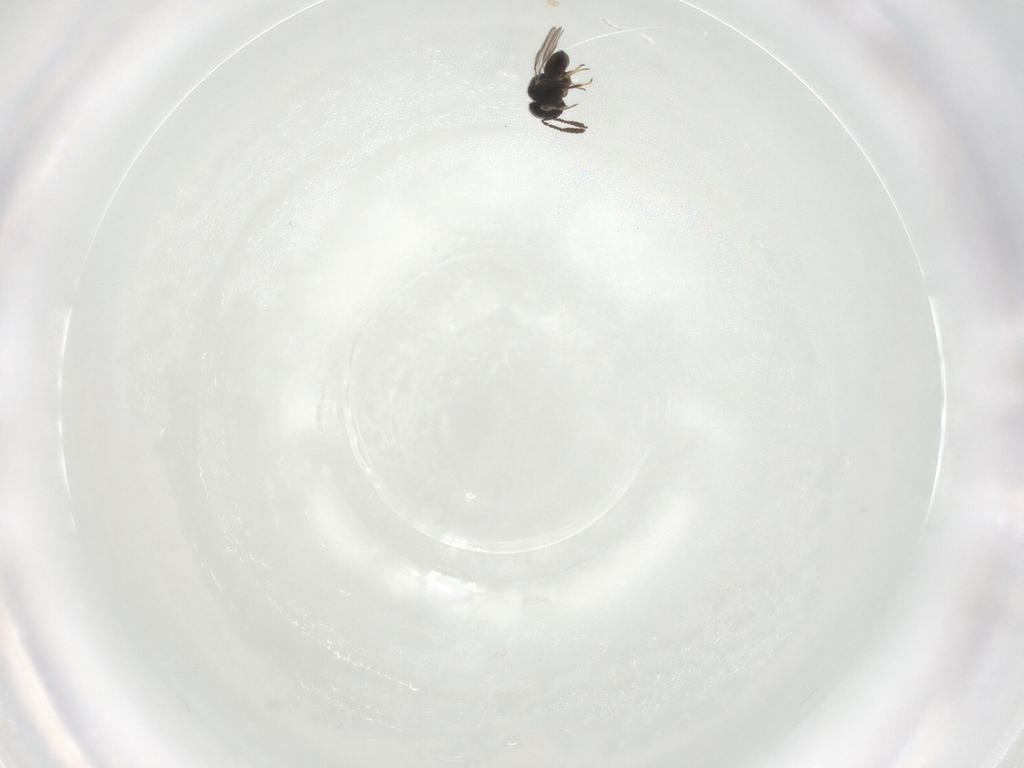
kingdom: Animalia
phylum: Arthropoda
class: Insecta
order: Hymenoptera
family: Scelionidae
